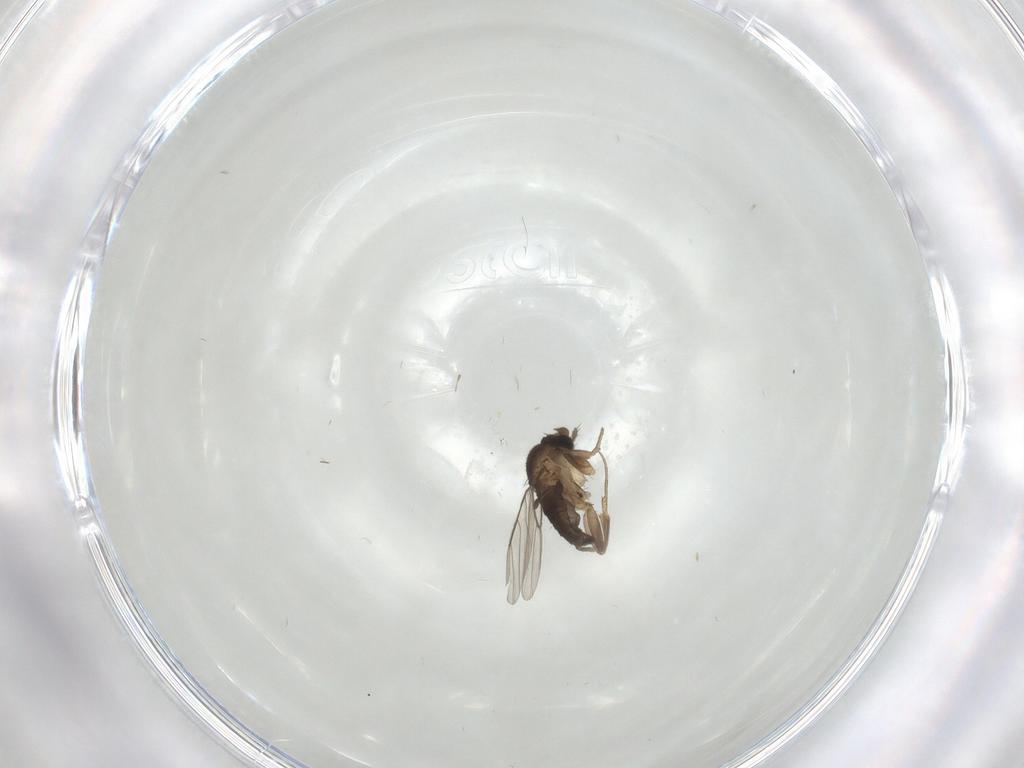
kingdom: Animalia
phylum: Arthropoda
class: Insecta
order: Diptera
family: Phoridae
